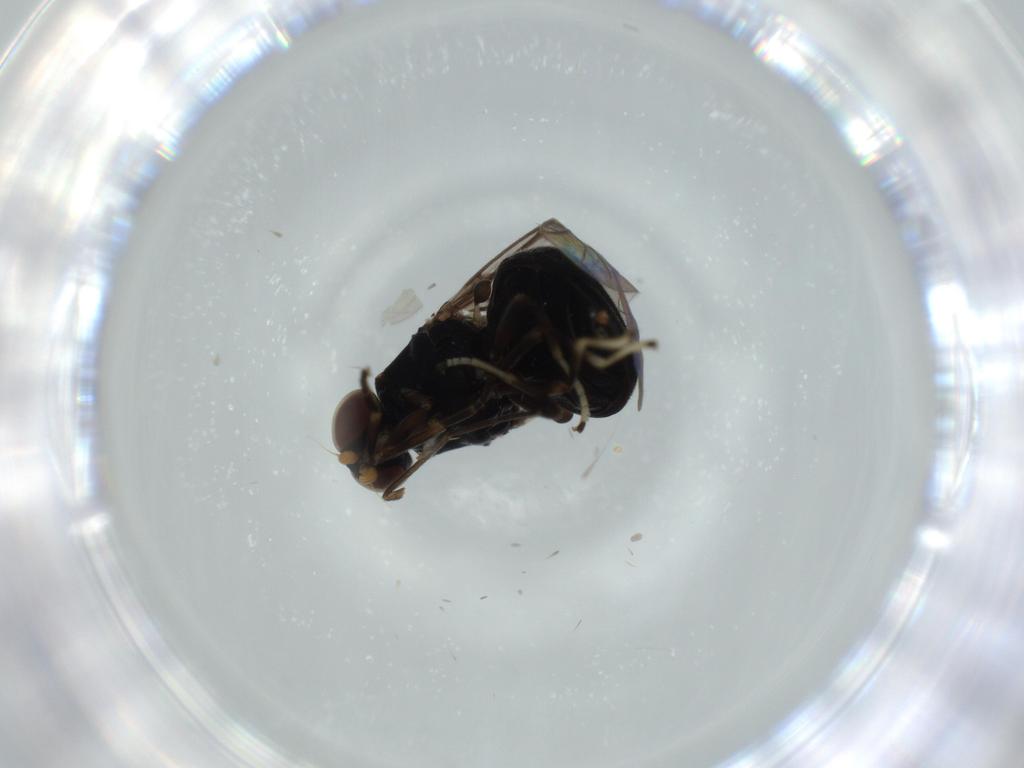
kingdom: Animalia
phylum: Arthropoda
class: Insecta
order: Diptera
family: Stratiomyidae
